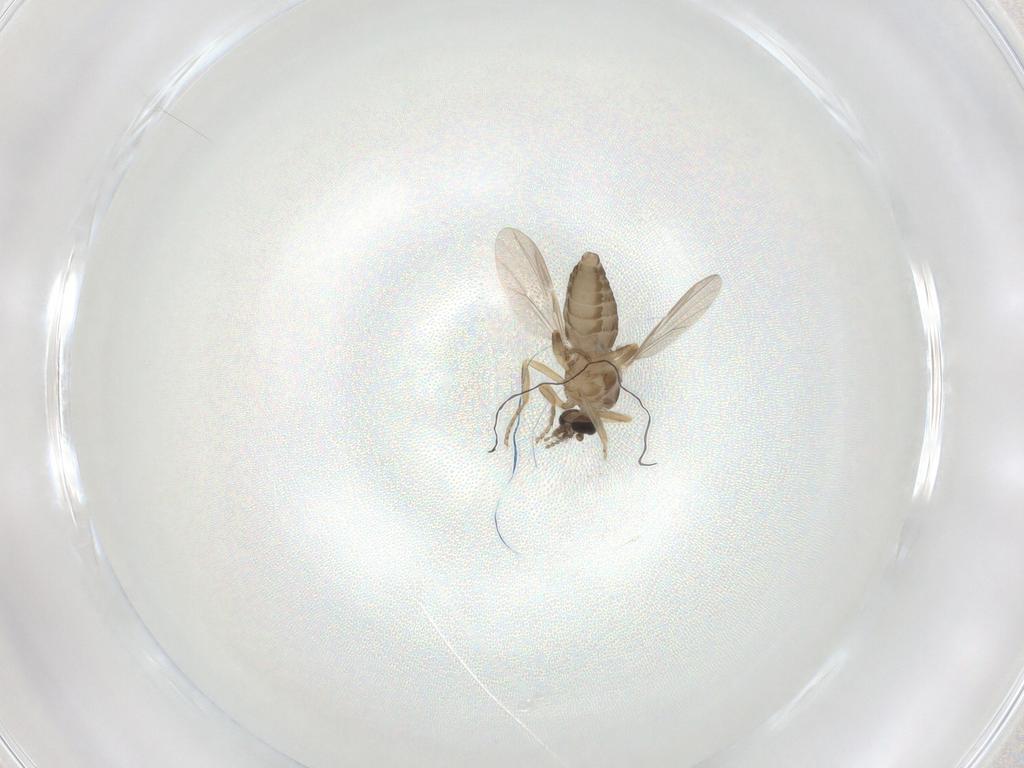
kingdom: Animalia
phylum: Arthropoda
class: Insecta
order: Diptera
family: Ceratopogonidae
